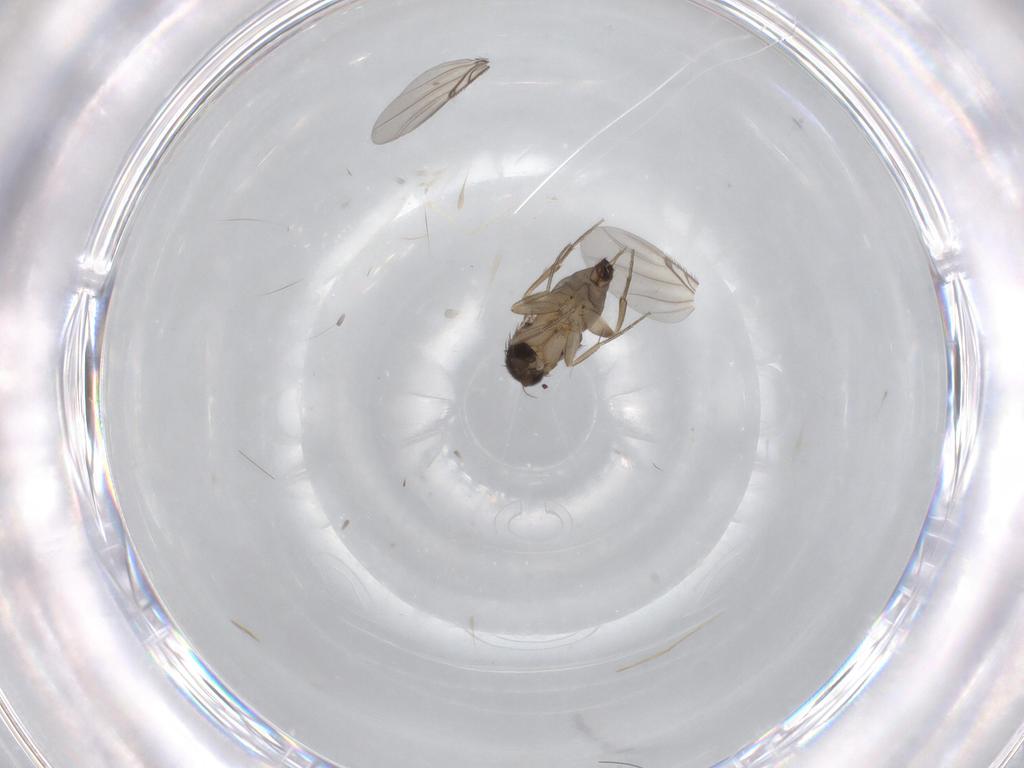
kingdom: Animalia
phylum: Arthropoda
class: Insecta
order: Diptera
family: Phoridae
